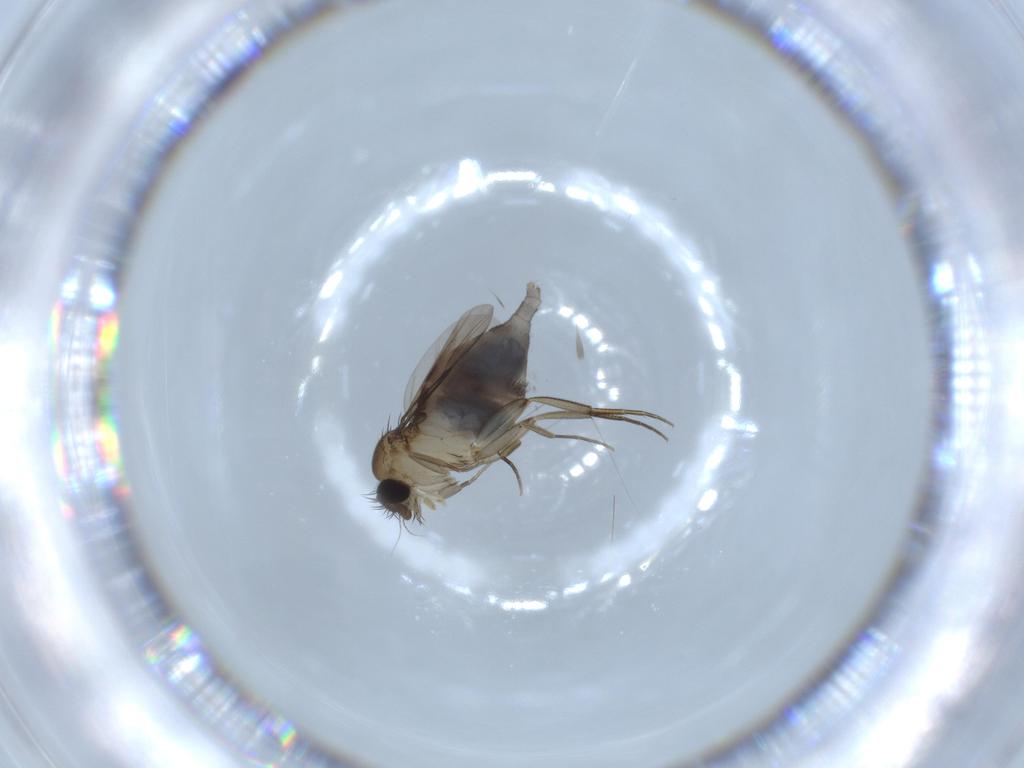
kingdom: Animalia
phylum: Arthropoda
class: Insecta
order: Diptera
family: Phoridae
